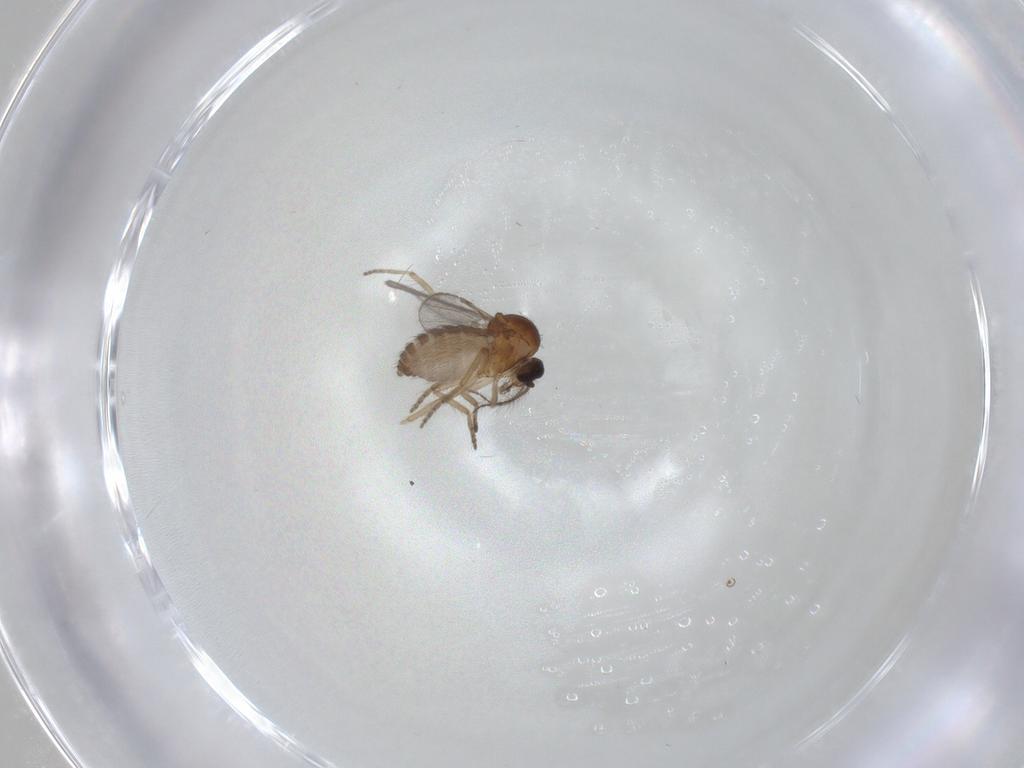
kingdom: Animalia
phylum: Arthropoda
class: Insecta
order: Diptera
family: Ceratopogonidae
